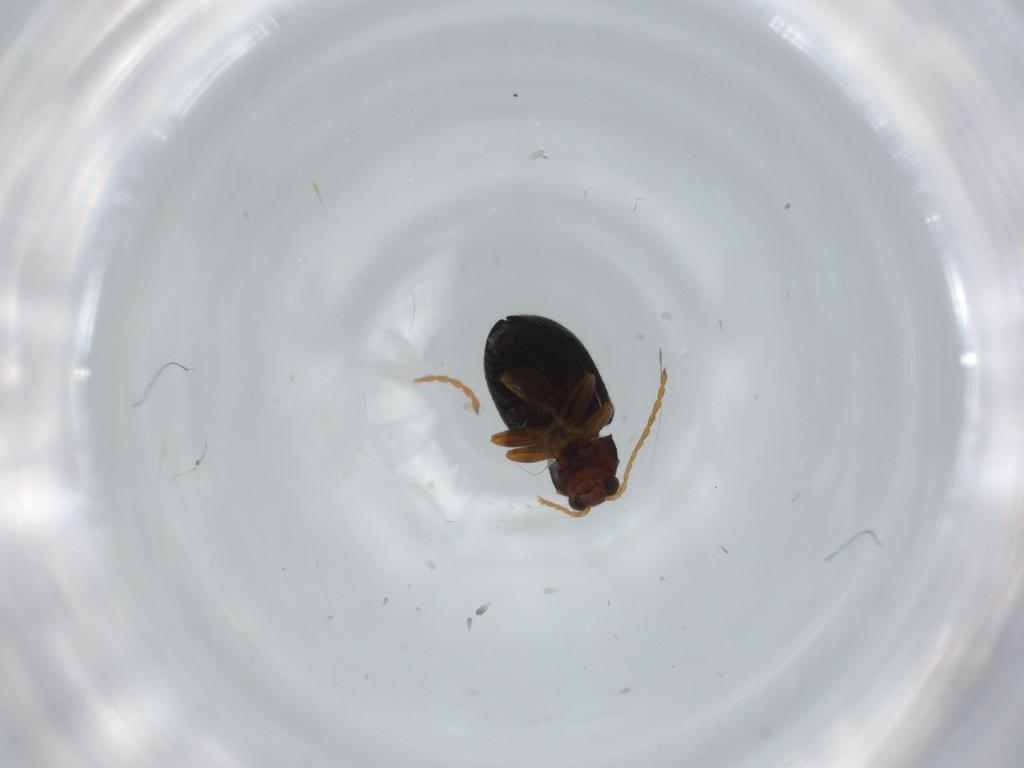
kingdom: Animalia
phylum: Arthropoda
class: Insecta
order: Coleoptera
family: Chrysomelidae
